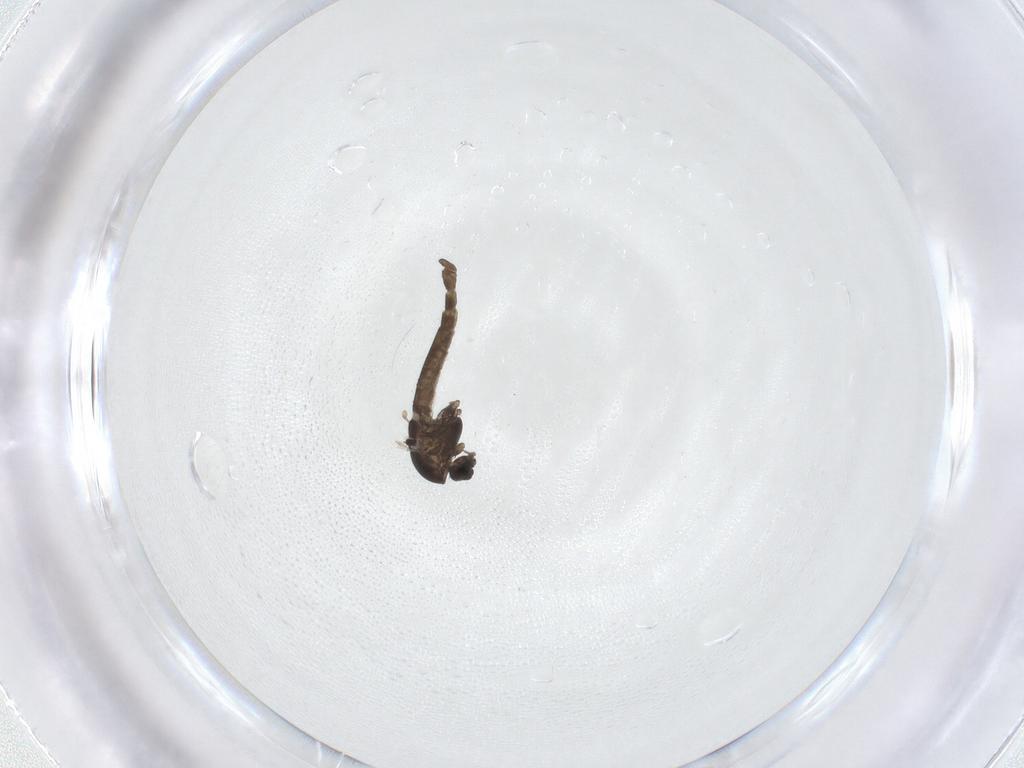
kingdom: Animalia
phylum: Arthropoda
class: Insecta
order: Diptera
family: Chironomidae
